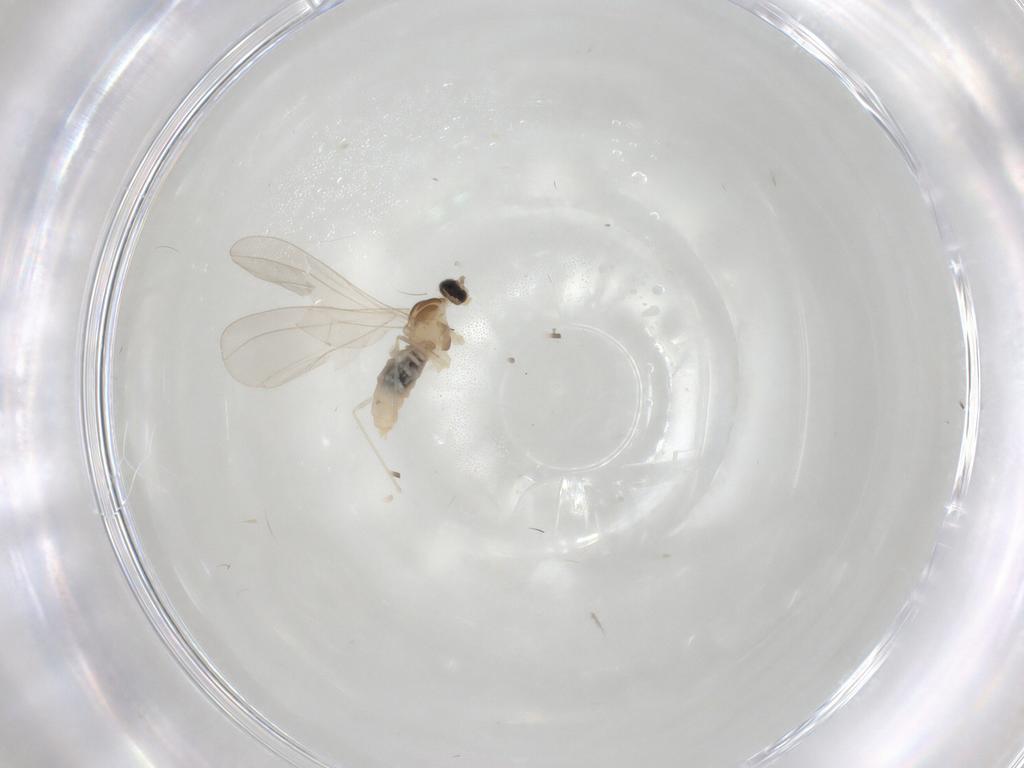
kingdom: Animalia
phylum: Arthropoda
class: Insecta
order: Diptera
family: Cecidomyiidae
